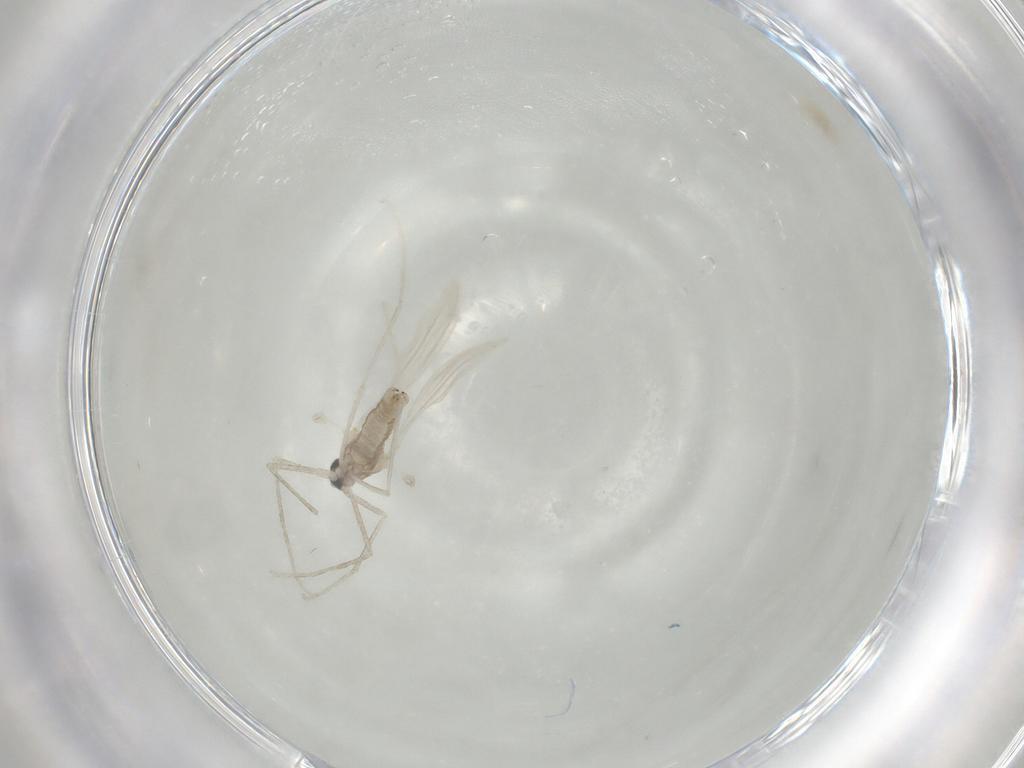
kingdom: Animalia
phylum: Arthropoda
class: Insecta
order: Diptera
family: Cecidomyiidae
